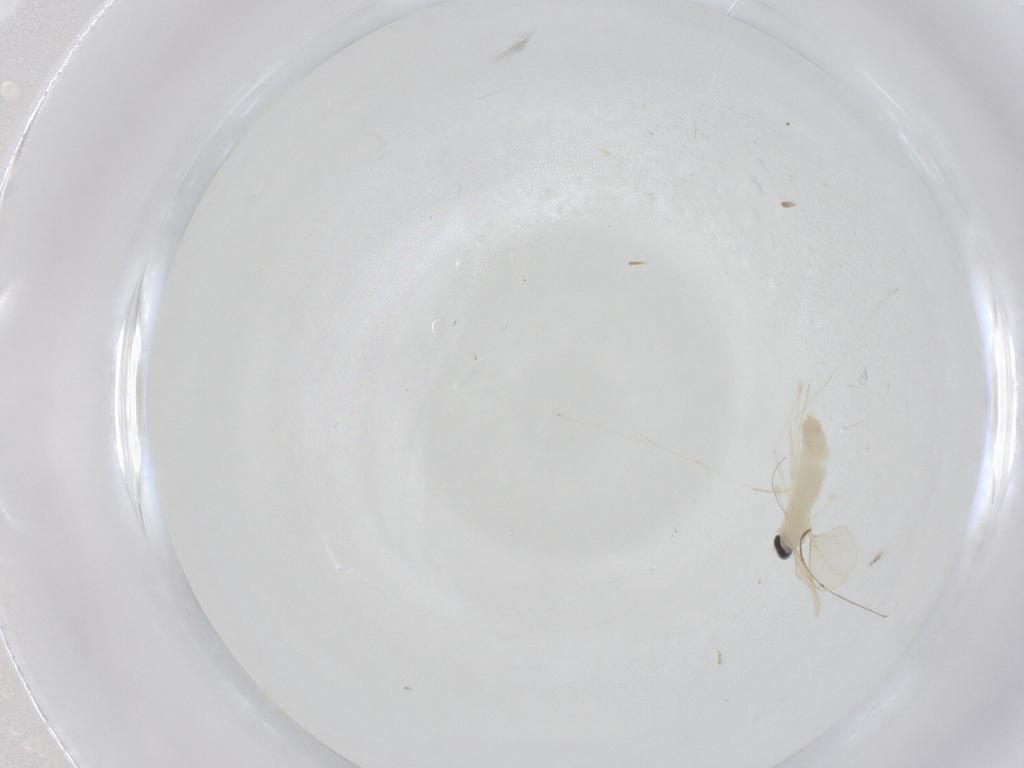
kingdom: Animalia
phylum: Arthropoda
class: Insecta
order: Diptera
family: Cecidomyiidae
